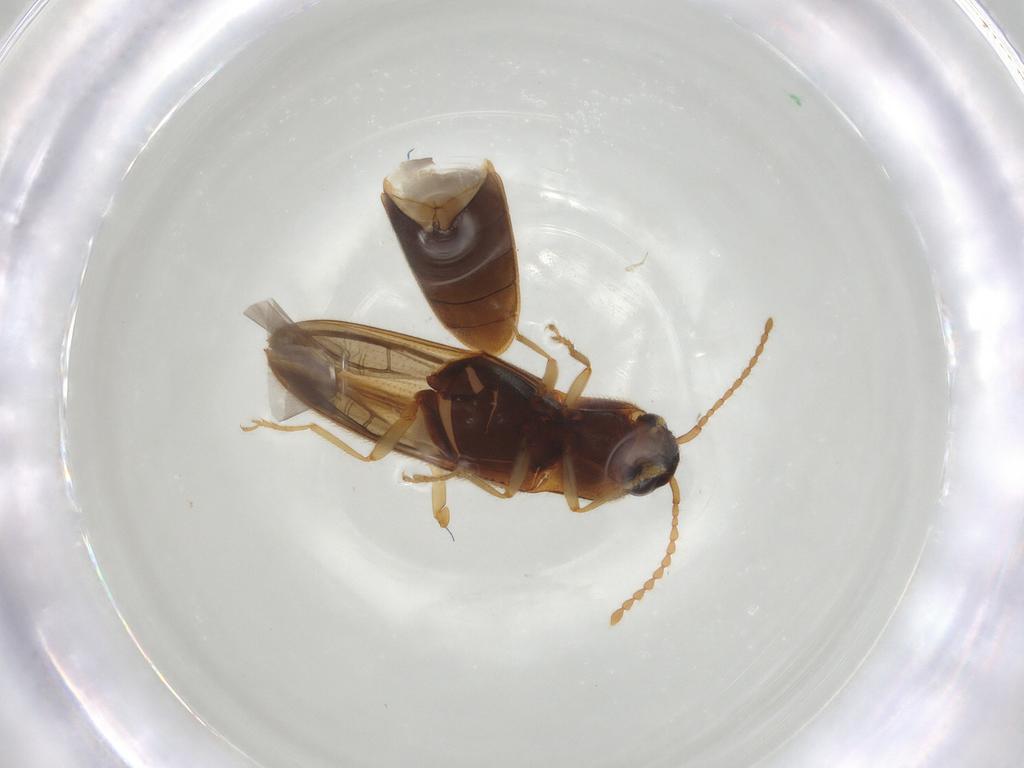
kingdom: Animalia
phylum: Arthropoda
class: Insecta
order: Coleoptera
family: Elateridae
